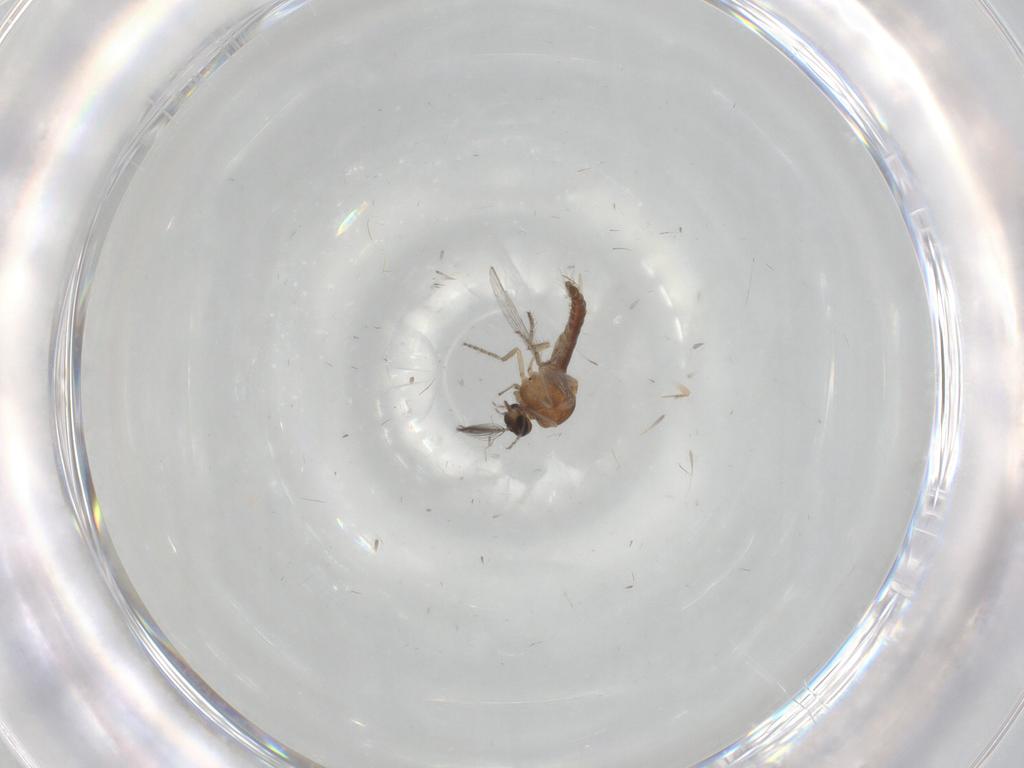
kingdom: Animalia
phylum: Arthropoda
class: Insecta
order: Diptera
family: Ceratopogonidae
